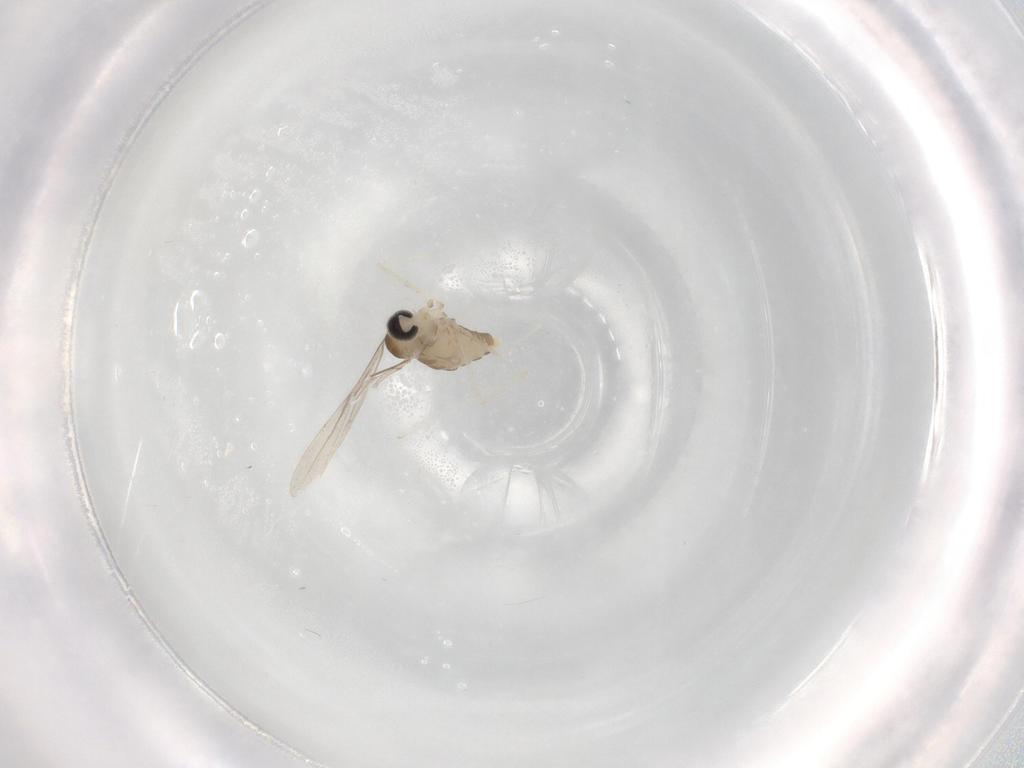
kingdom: Animalia
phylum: Arthropoda
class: Insecta
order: Diptera
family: Cecidomyiidae
